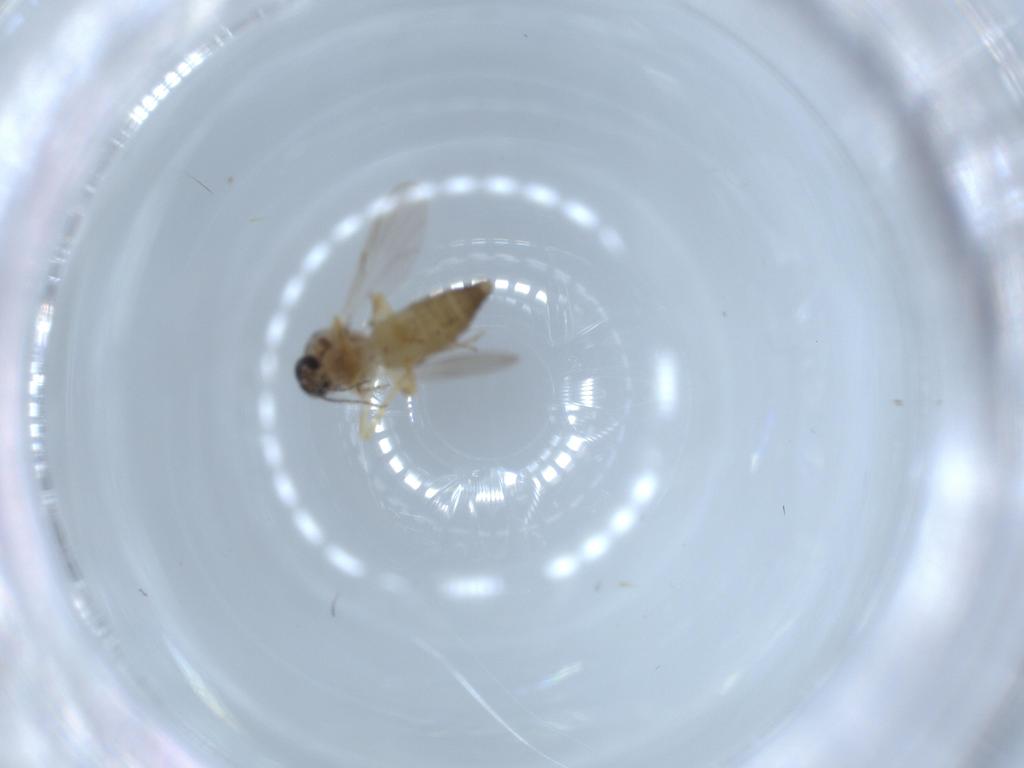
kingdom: Animalia
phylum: Arthropoda
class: Insecta
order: Diptera
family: Ceratopogonidae
